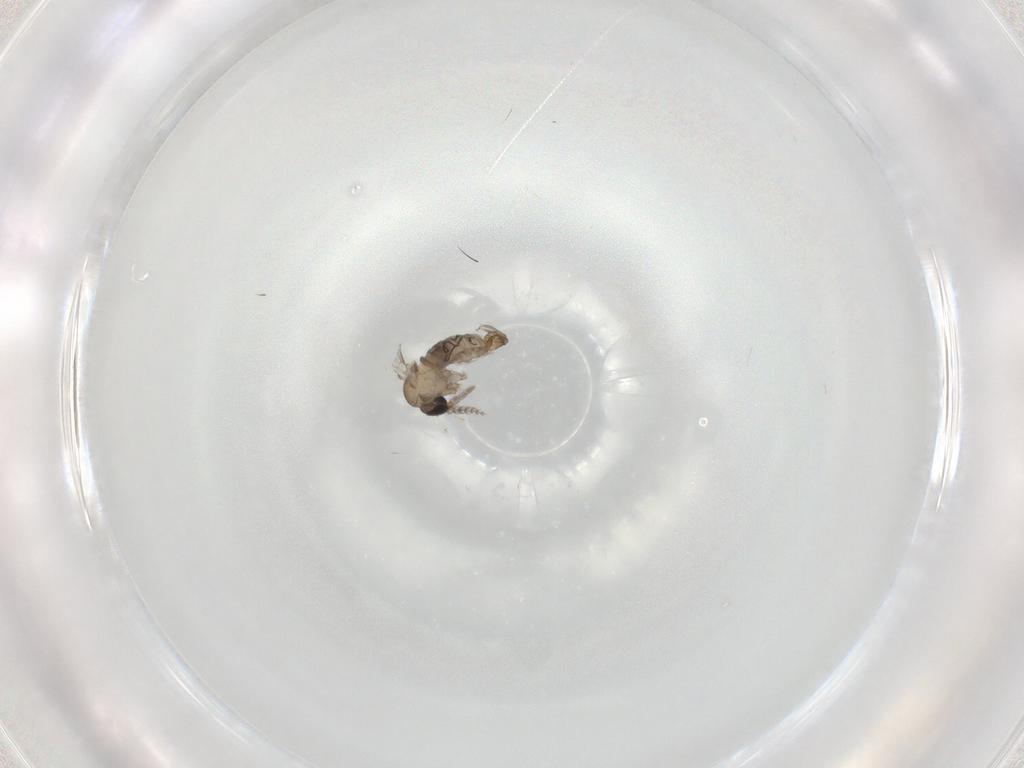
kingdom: Animalia
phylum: Arthropoda
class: Insecta
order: Diptera
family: Psychodidae
